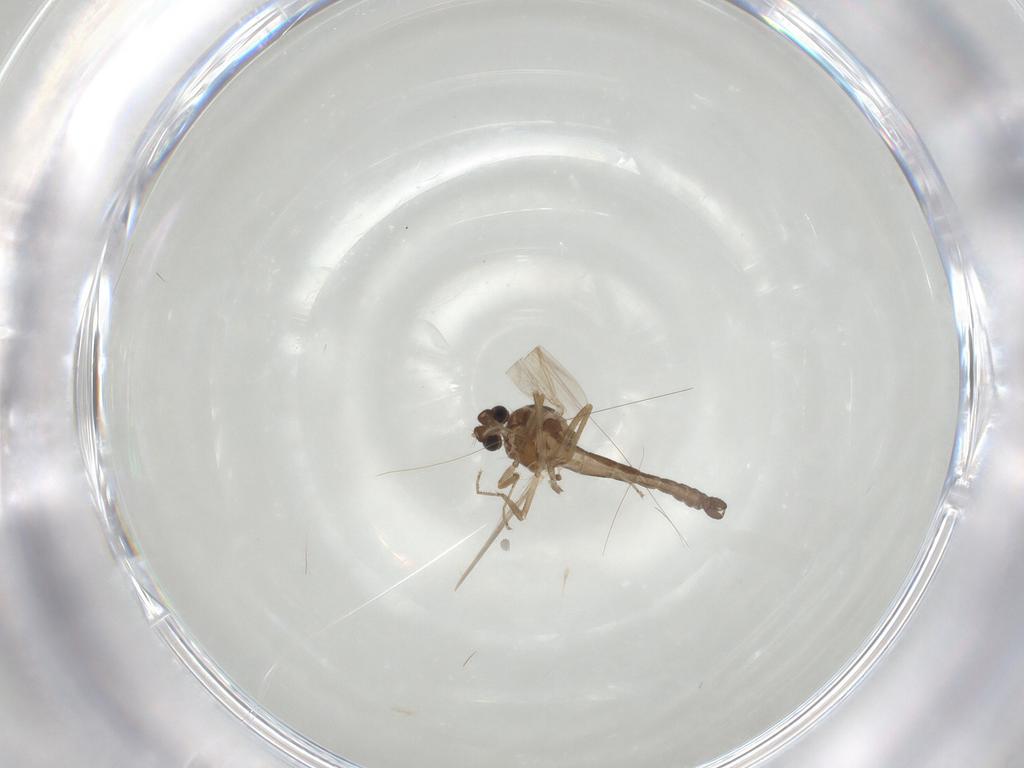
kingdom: Animalia
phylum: Arthropoda
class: Insecta
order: Diptera
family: Ceratopogonidae
